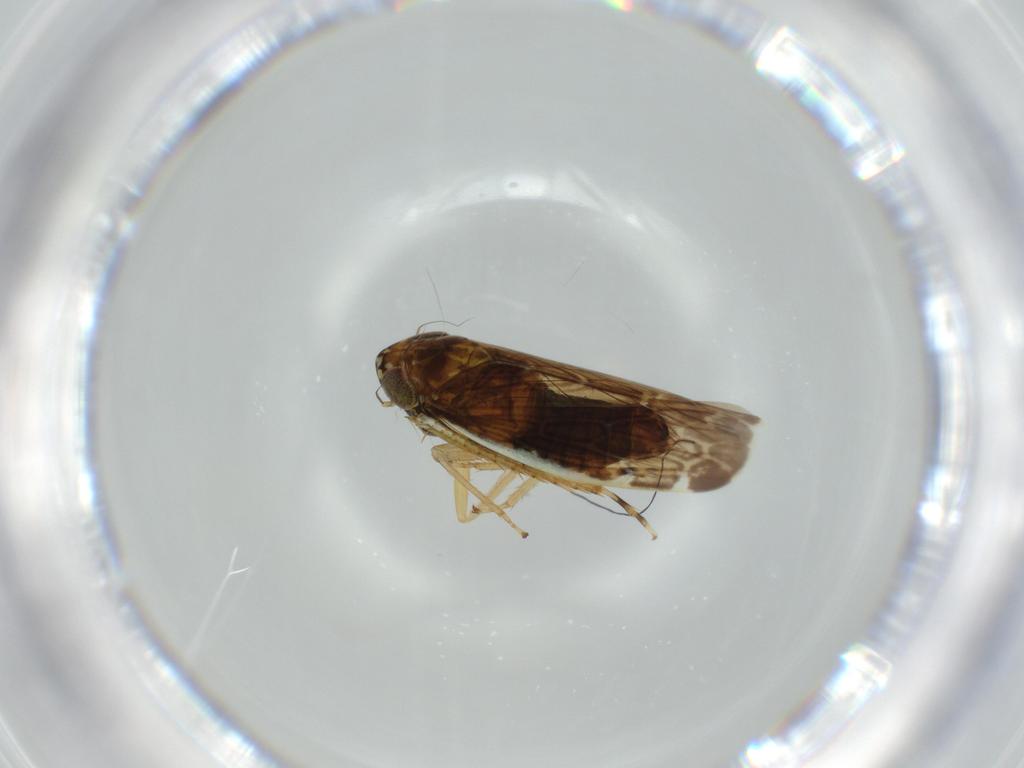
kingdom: Animalia
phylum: Arthropoda
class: Insecta
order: Hemiptera
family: Cicadellidae
